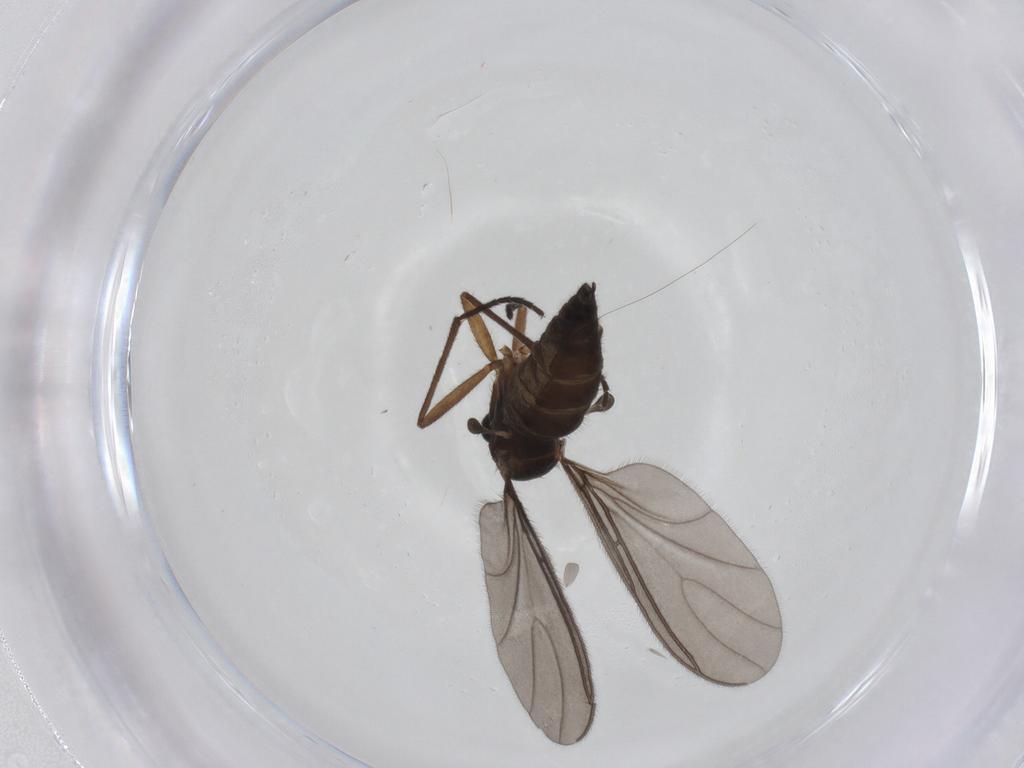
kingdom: Animalia
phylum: Arthropoda
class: Insecta
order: Diptera
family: Sciaridae
